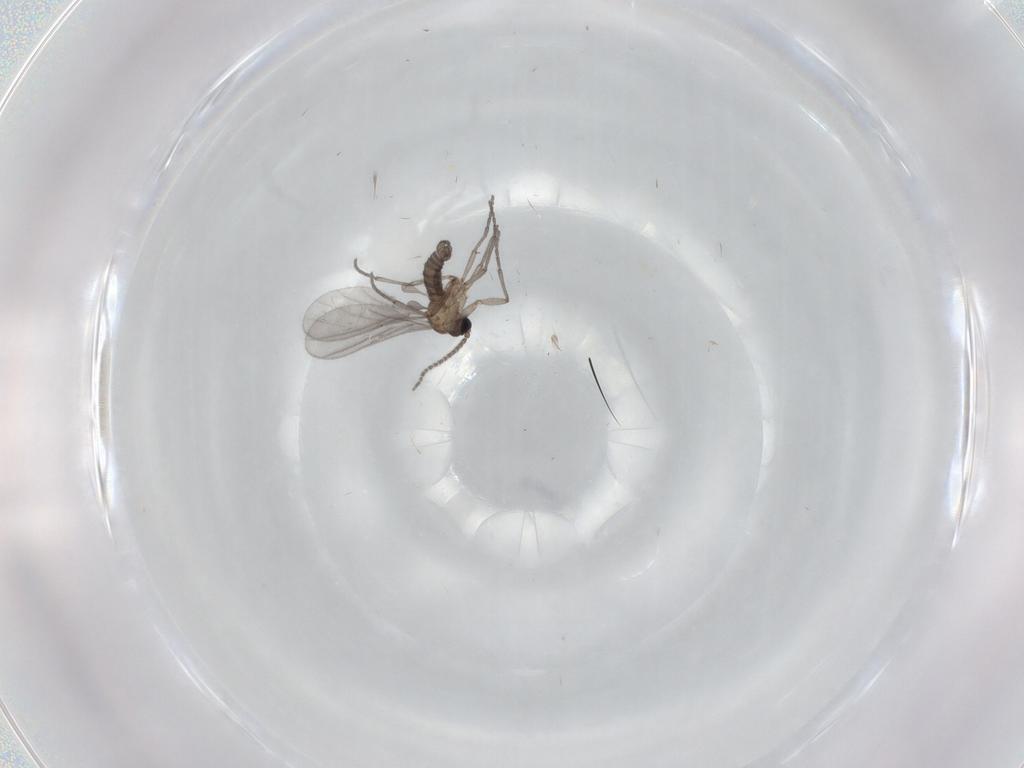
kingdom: Animalia
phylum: Arthropoda
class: Insecta
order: Diptera
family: Sciaridae
